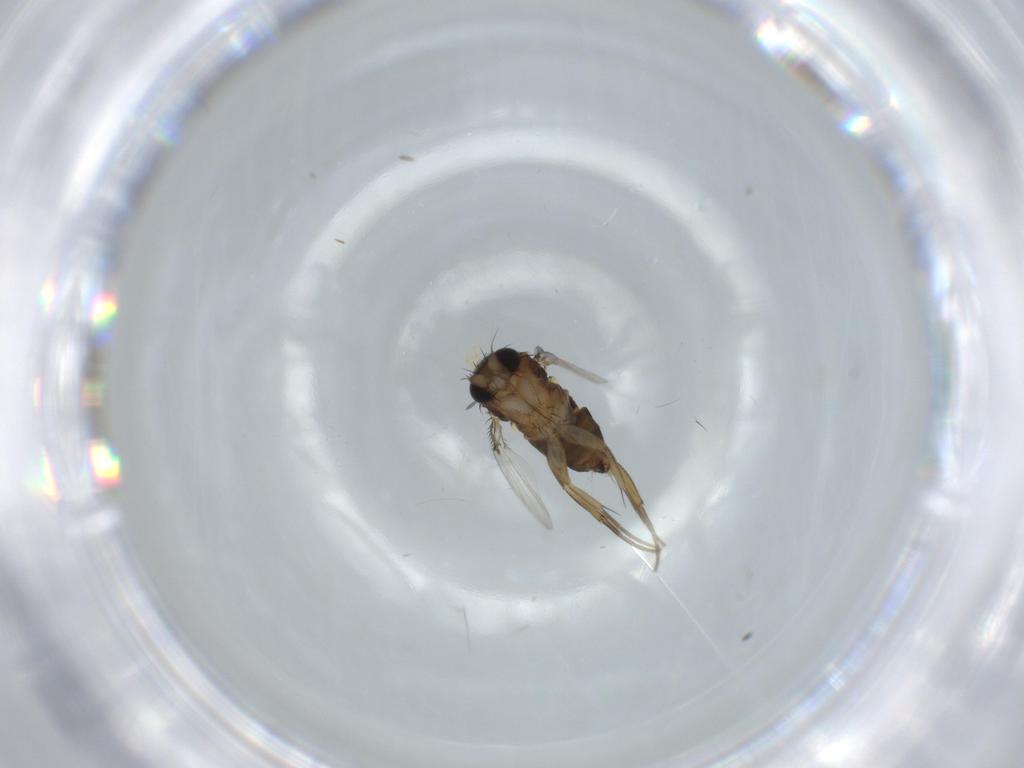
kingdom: Animalia
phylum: Arthropoda
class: Insecta
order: Diptera
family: Phoridae
